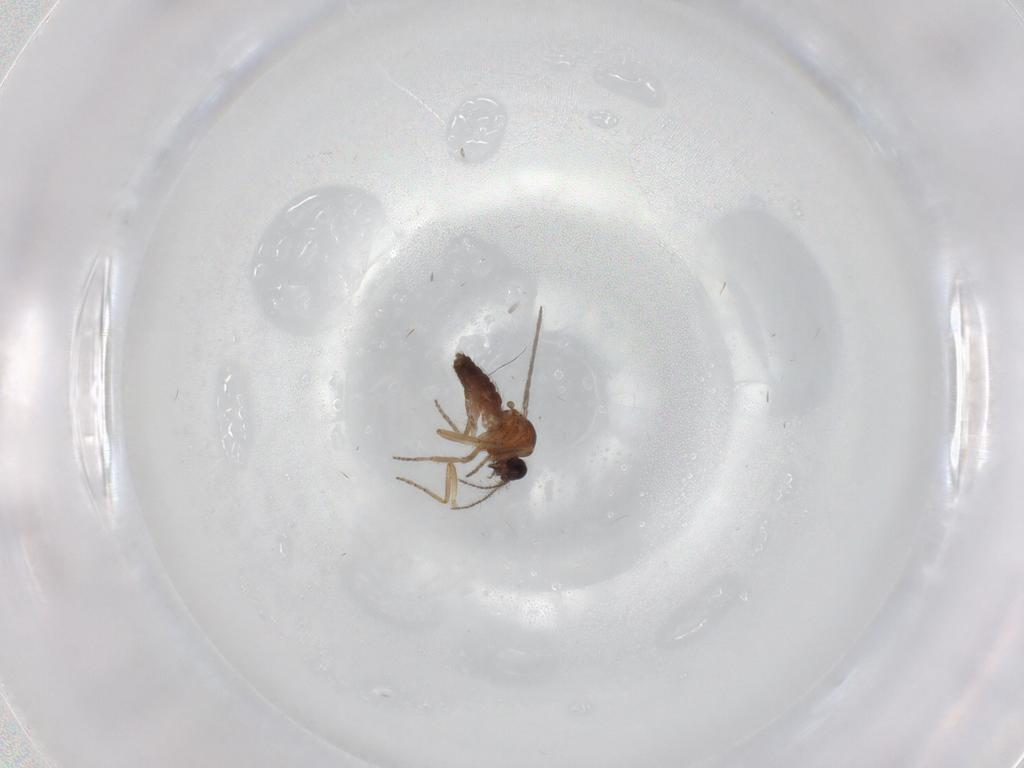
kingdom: Animalia
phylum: Arthropoda
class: Insecta
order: Diptera
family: Ceratopogonidae
